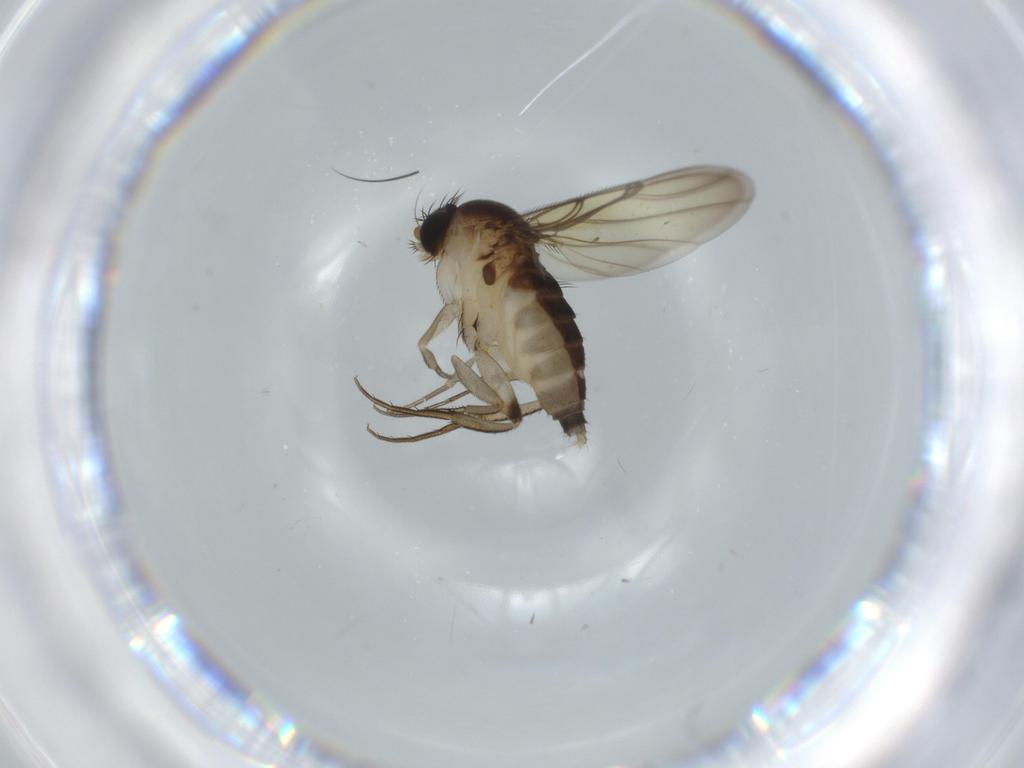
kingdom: Animalia
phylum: Arthropoda
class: Insecta
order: Diptera
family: Phoridae
